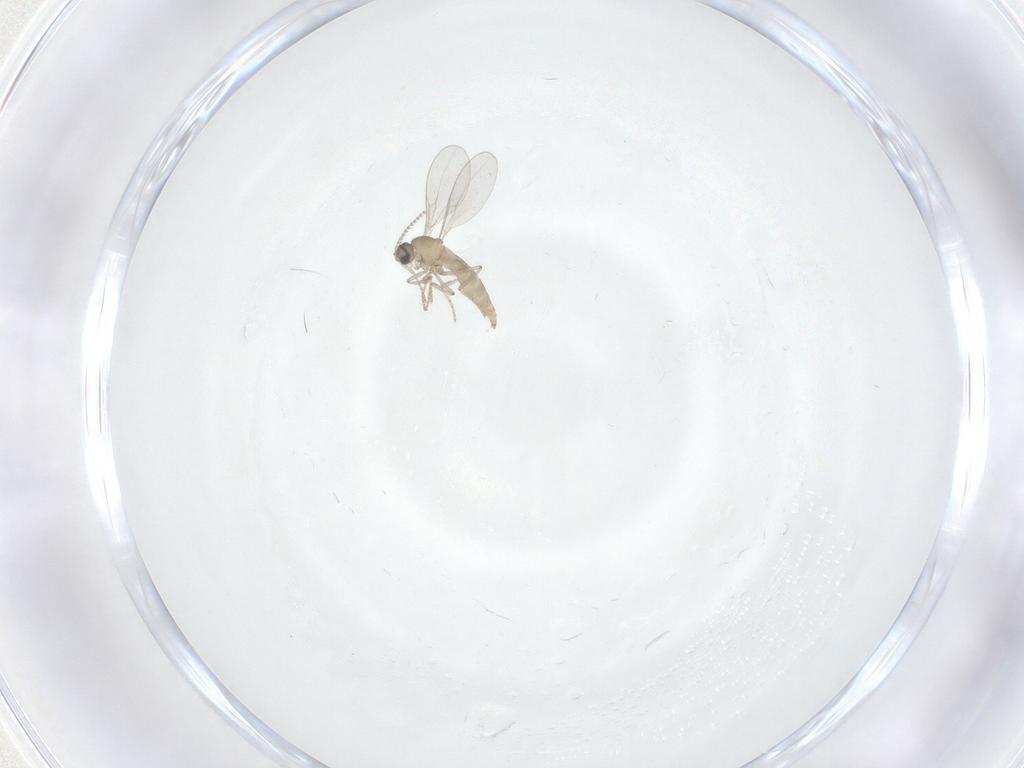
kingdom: Animalia
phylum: Arthropoda
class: Insecta
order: Diptera
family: Cecidomyiidae
